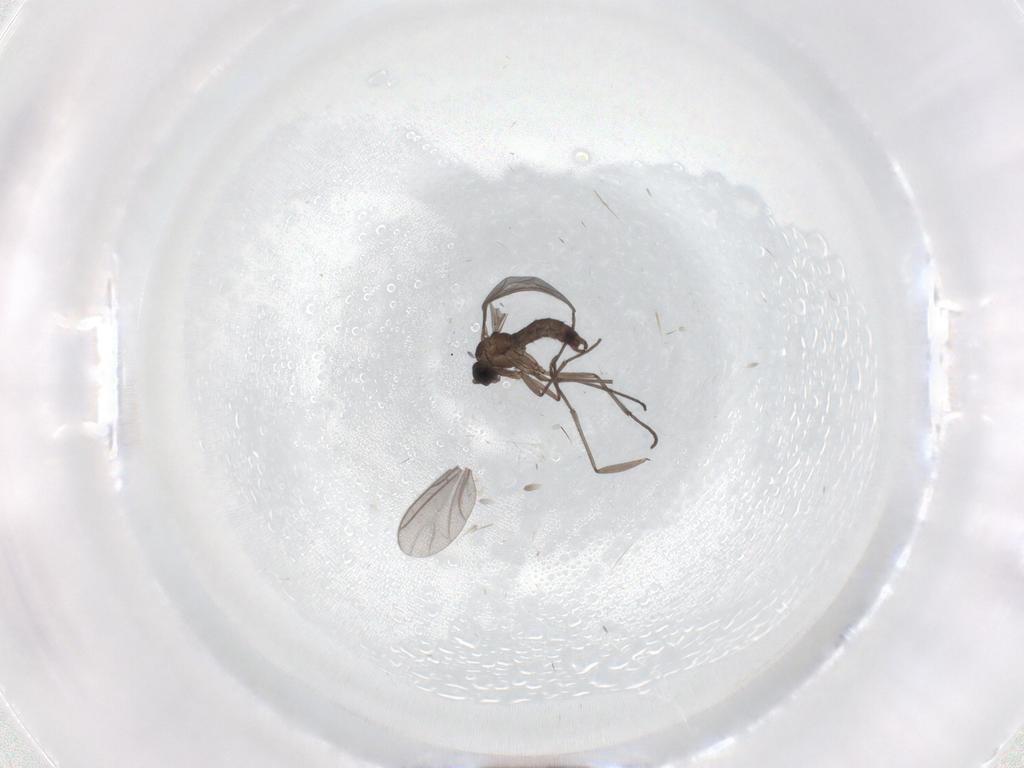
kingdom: Animalia
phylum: Arthropoda
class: Insecta
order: Diptera
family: Sciaridae
